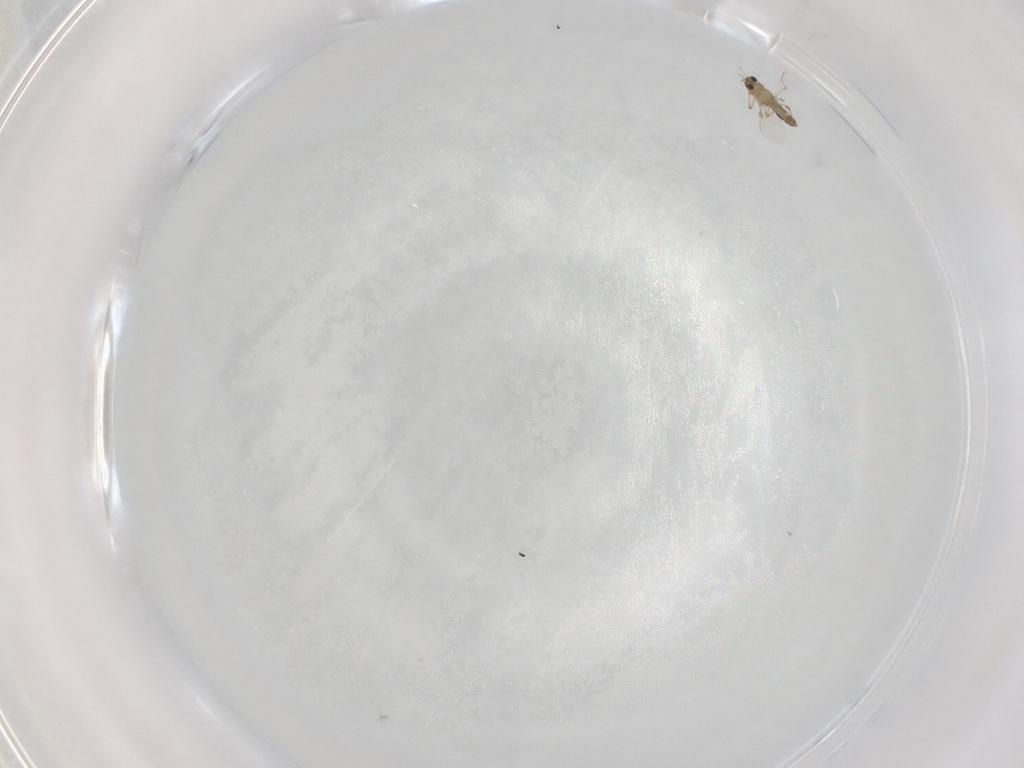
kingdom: Animalia
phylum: Arthropoda
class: Insecta
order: Diptera
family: Chironomidae
